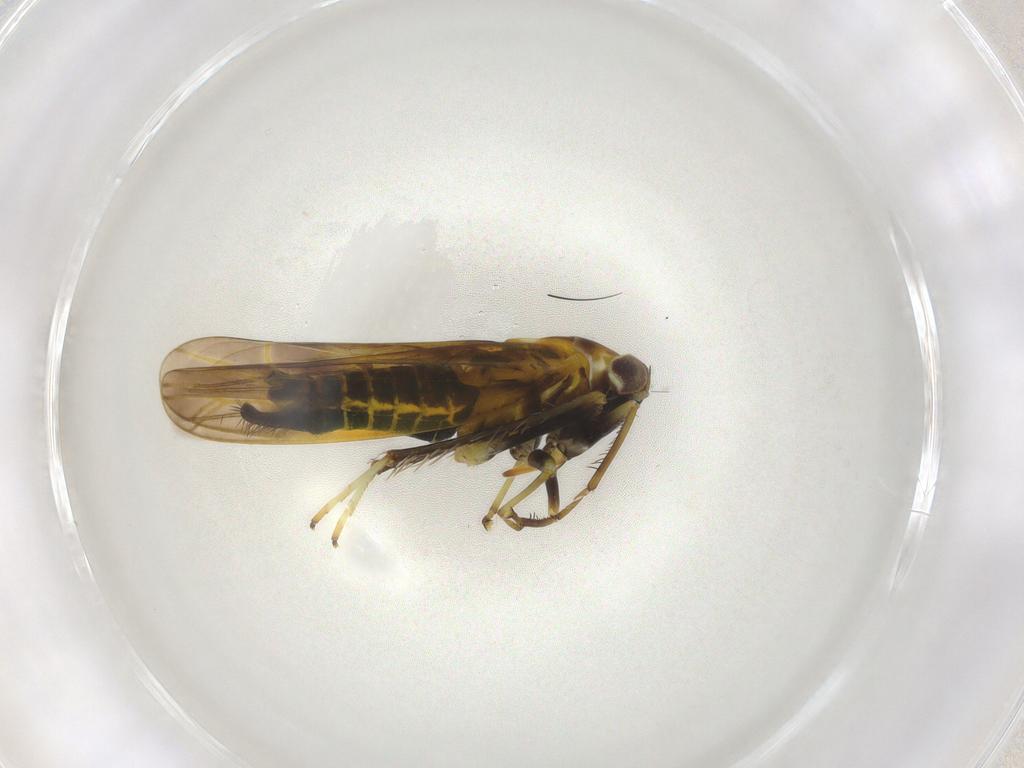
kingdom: Animalia
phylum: Arthropoda
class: Insecta
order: Hemiptera
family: Cicadellidae
